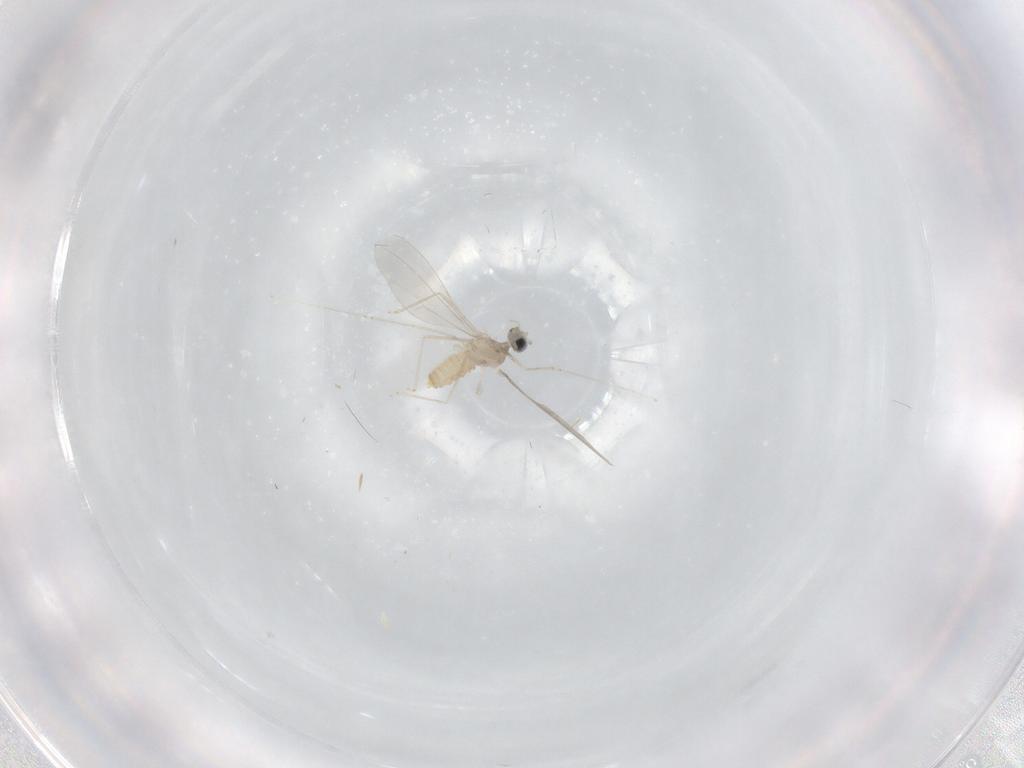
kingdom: Animalia
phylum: Arthropoda
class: Insecta
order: Diptera
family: Cecidomyiidae
